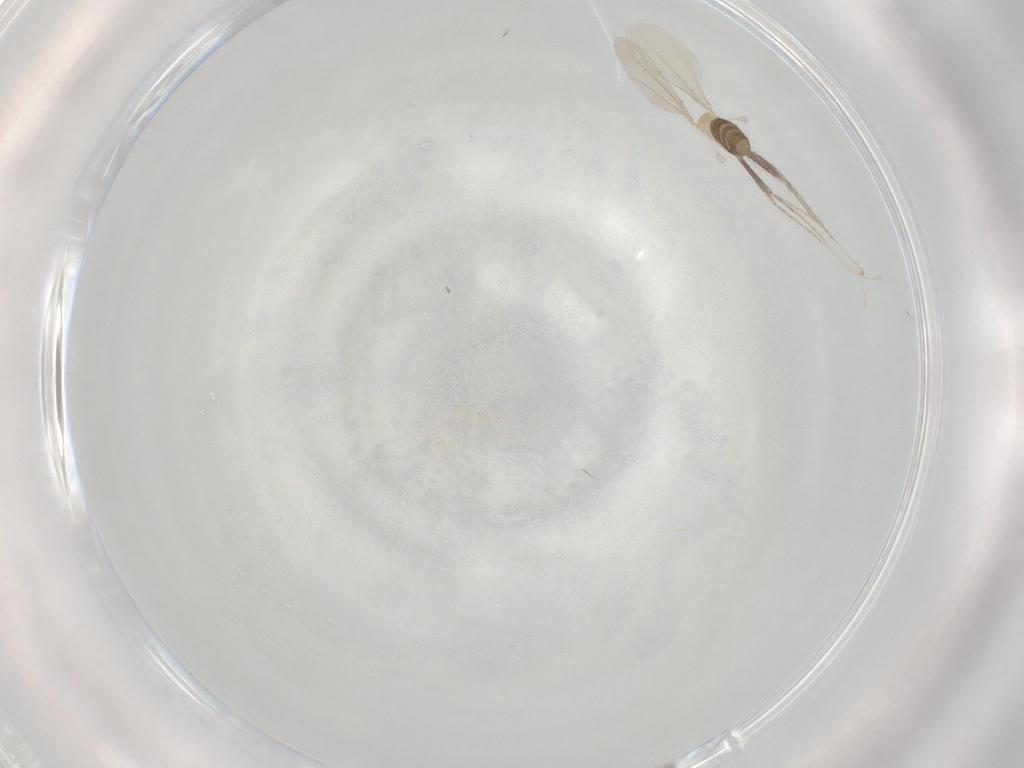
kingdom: Animalia
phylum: Arthropoda
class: Insecta
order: Diptera
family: Cecidomyiidae
